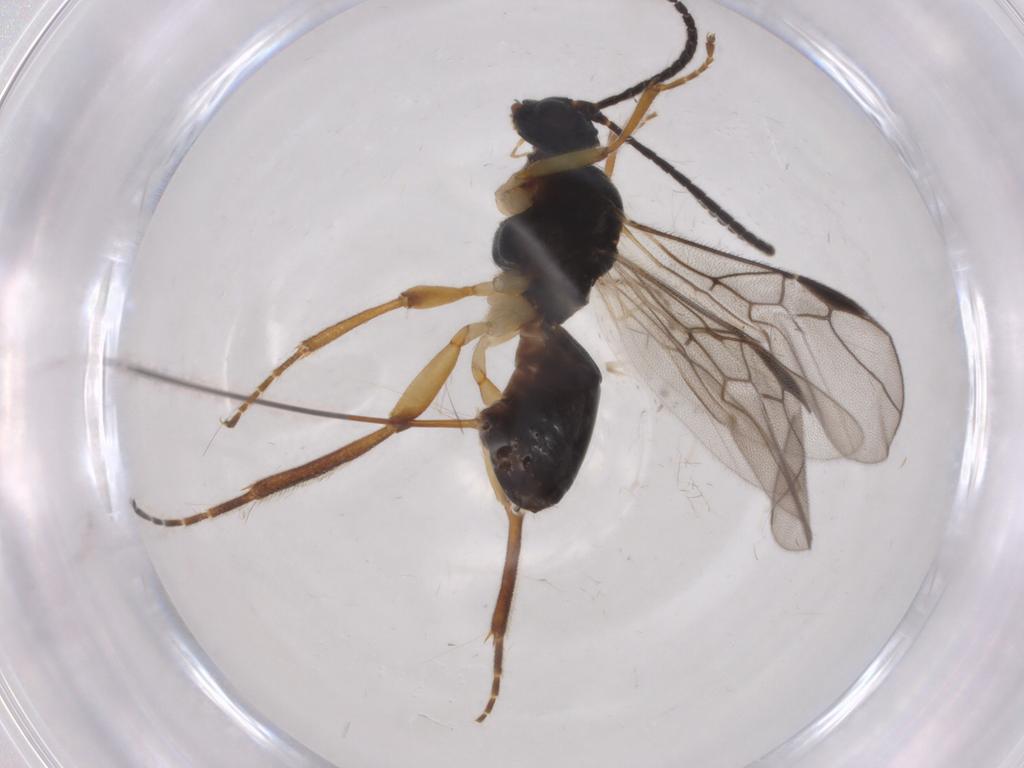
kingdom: Animalia
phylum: Arthropoda
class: Insecta
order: Hymenoptera
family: Braconidae
